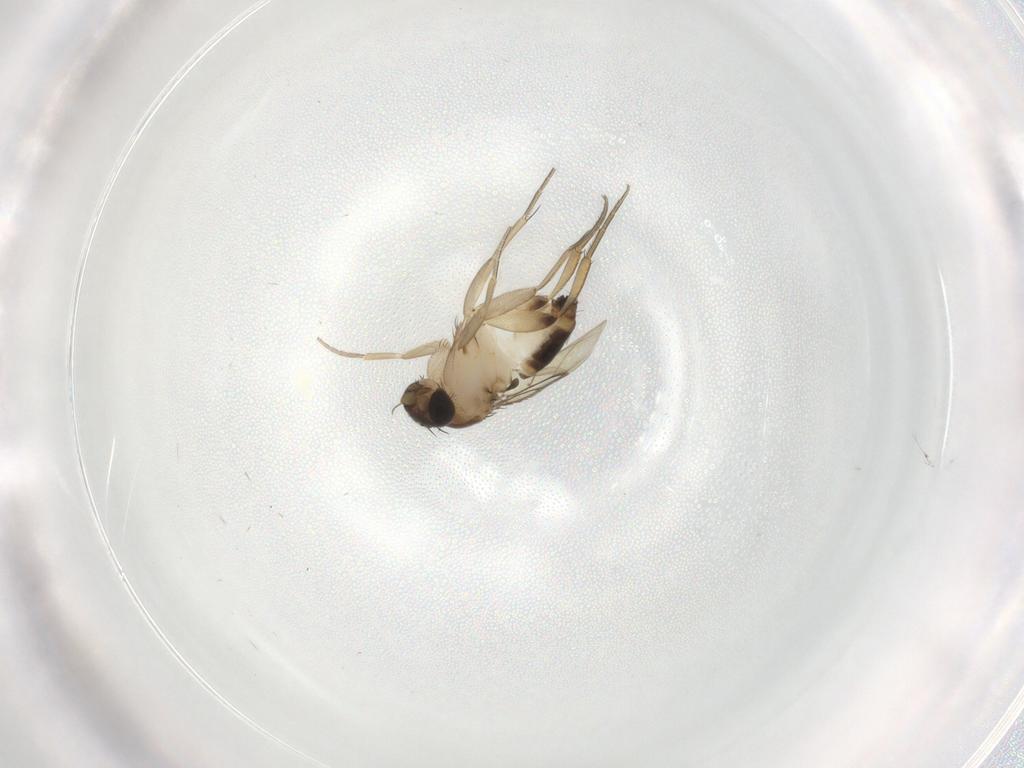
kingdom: Animalia
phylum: Arthropoda
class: Insecta
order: Diptera
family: Phoridae
